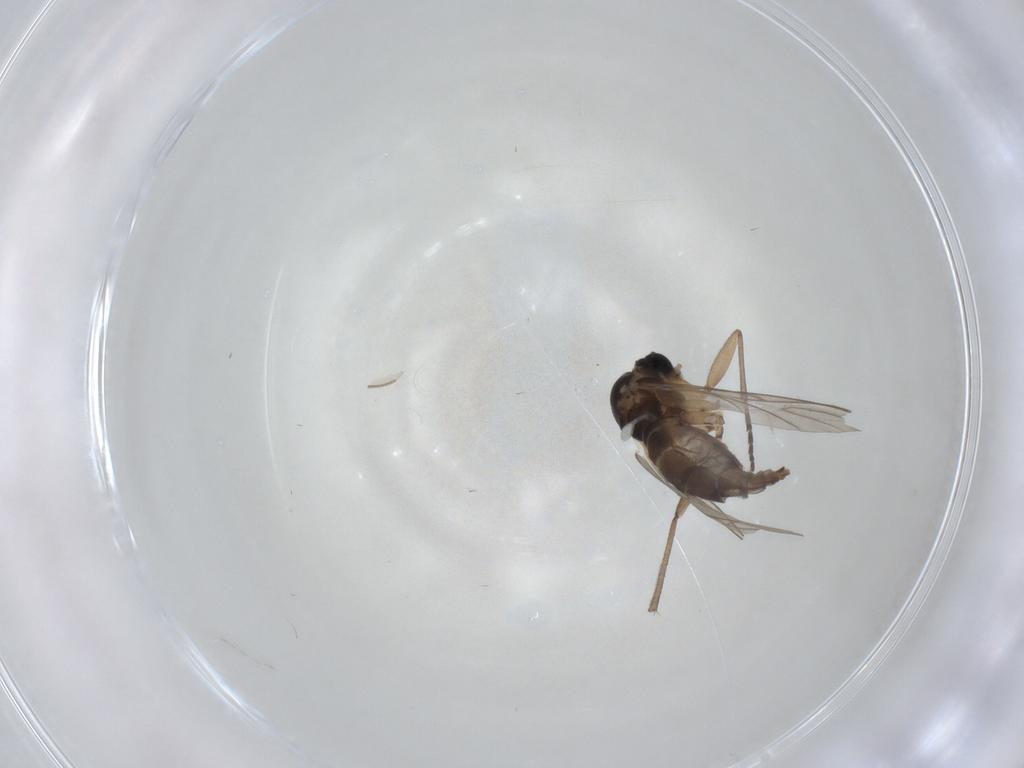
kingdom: Animalia
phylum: Arthropoda
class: Insecta
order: Diptera
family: Sciaridae
